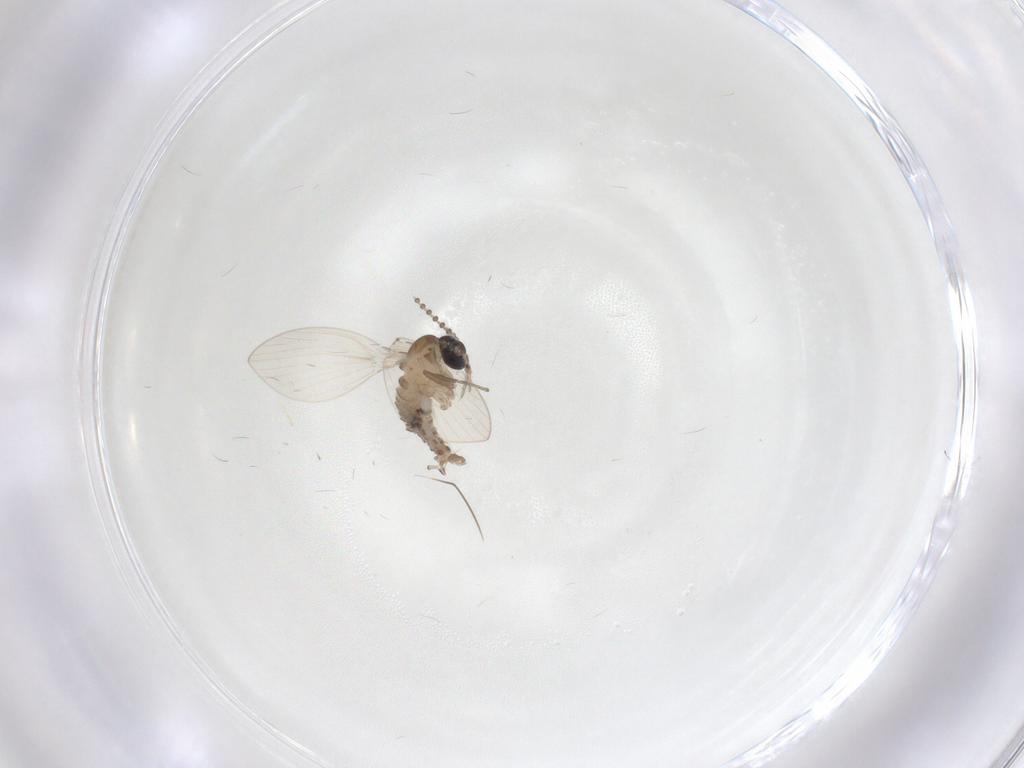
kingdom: Animalia
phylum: Arthropoda
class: Insecta
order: Diptera
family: Psychodidae
